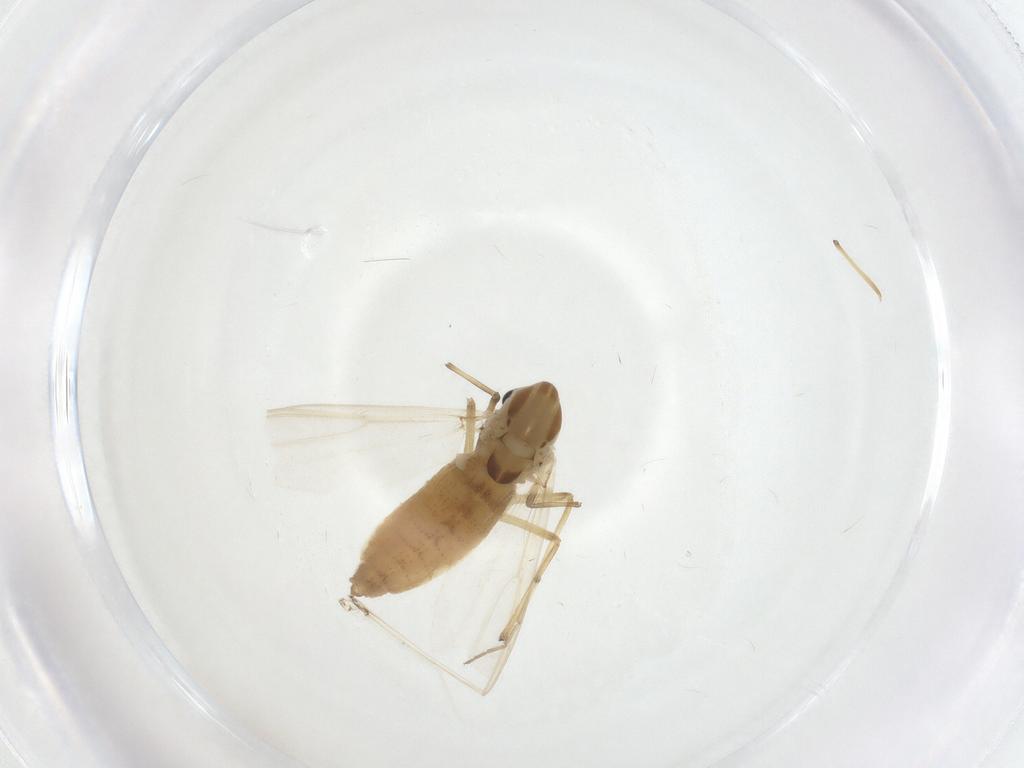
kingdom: Animalia
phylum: Arthropoda
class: Insecta
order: Diptera
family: Chironomidae
